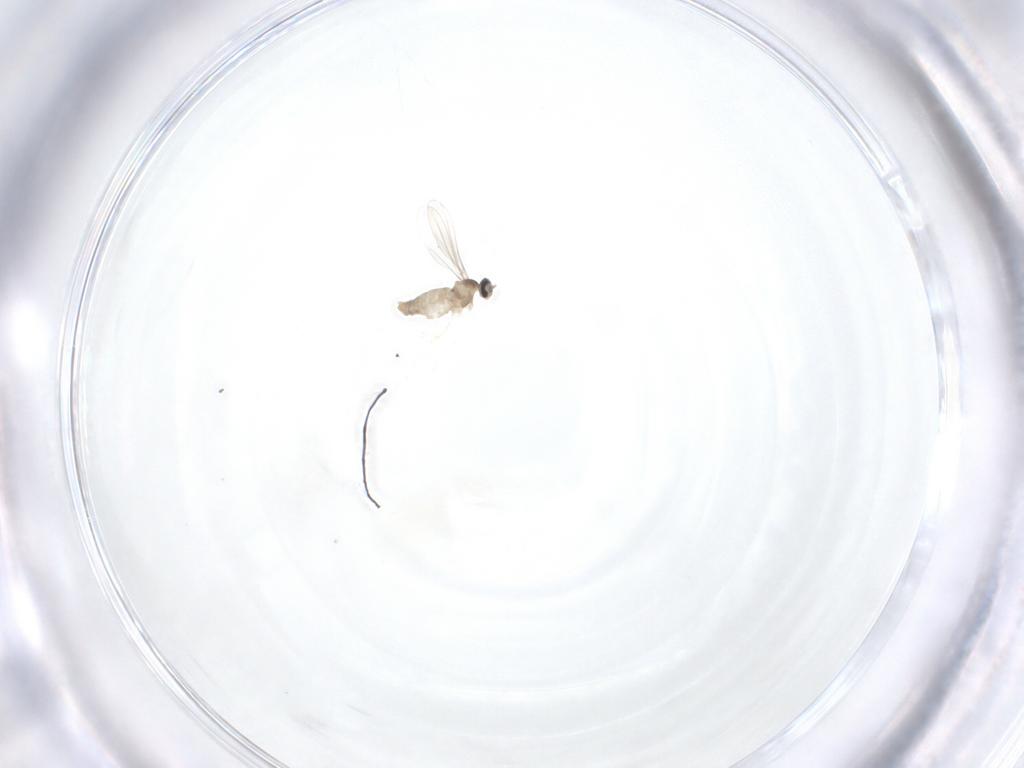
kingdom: Animalia
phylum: Arthropoda
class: Insecta
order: Diptera
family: Cecidomyiidae
